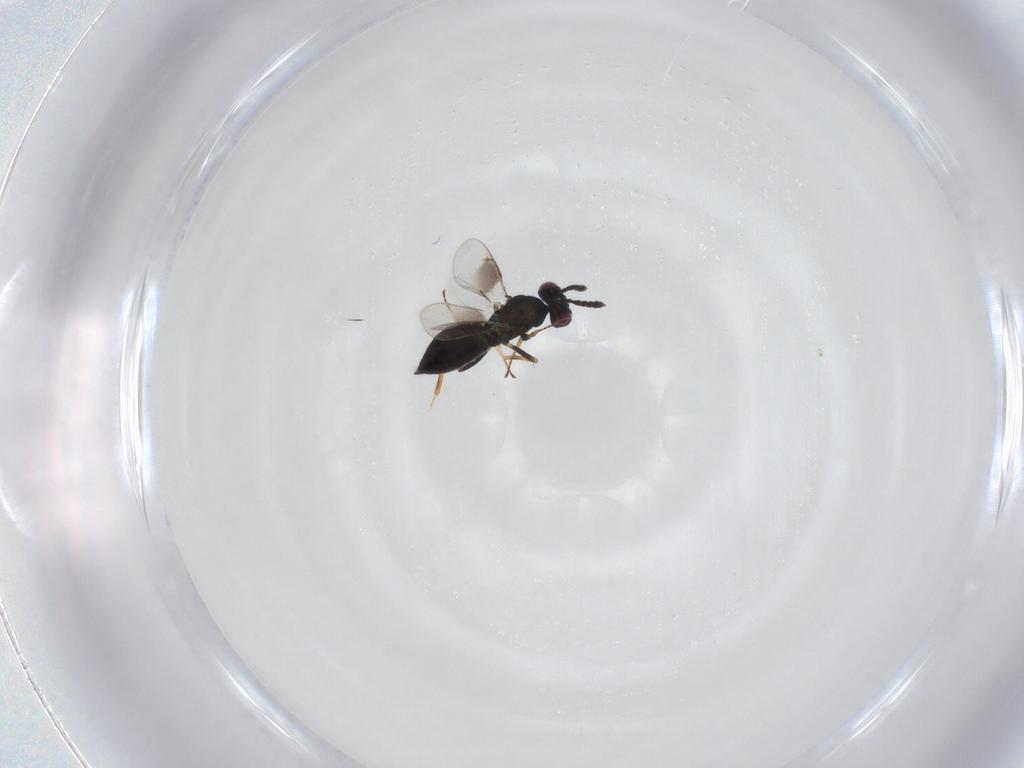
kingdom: Animalia
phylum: Arthropoda
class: Insecta
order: Hymenoptera
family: Eulophidae
